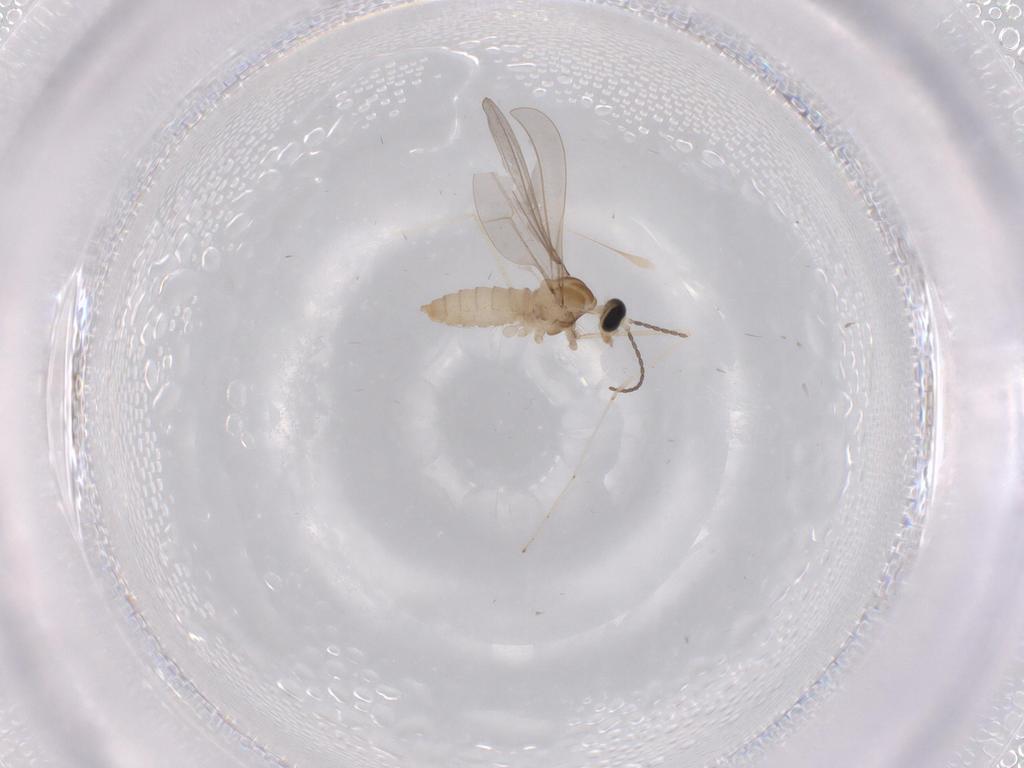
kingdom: Animalia
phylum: Arthropoda
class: Insecta
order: Diptera
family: Cecidomyiidae
